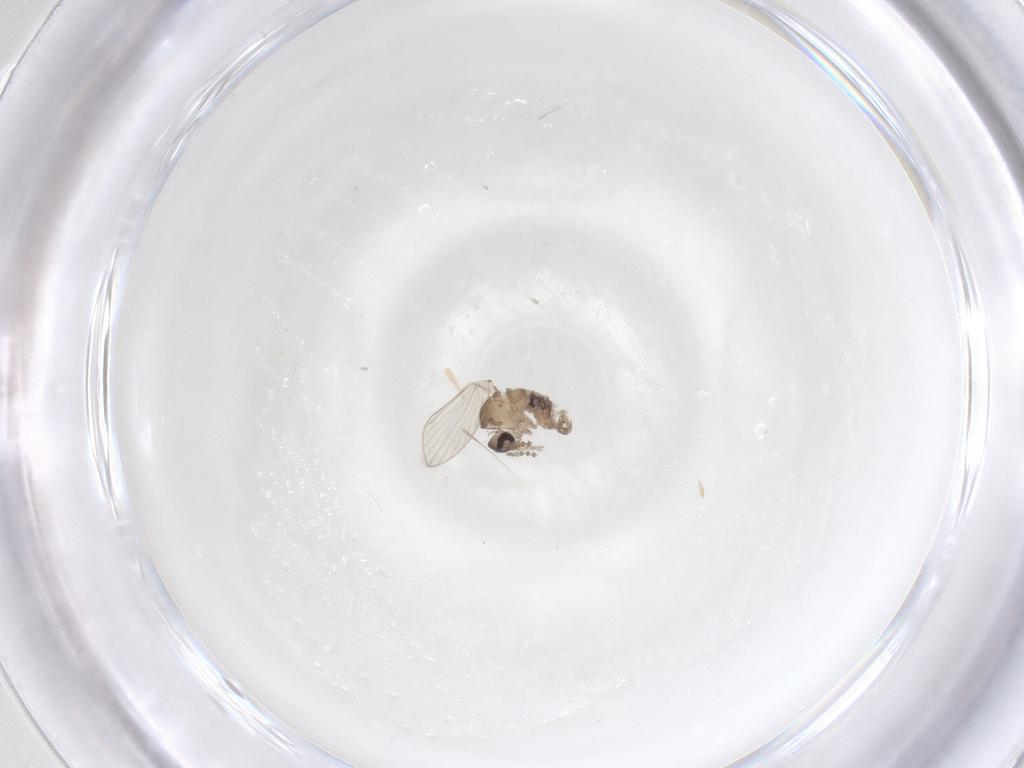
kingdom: Animalia
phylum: Arthropoda
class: Insecta
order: Diptera
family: Psychodidae
